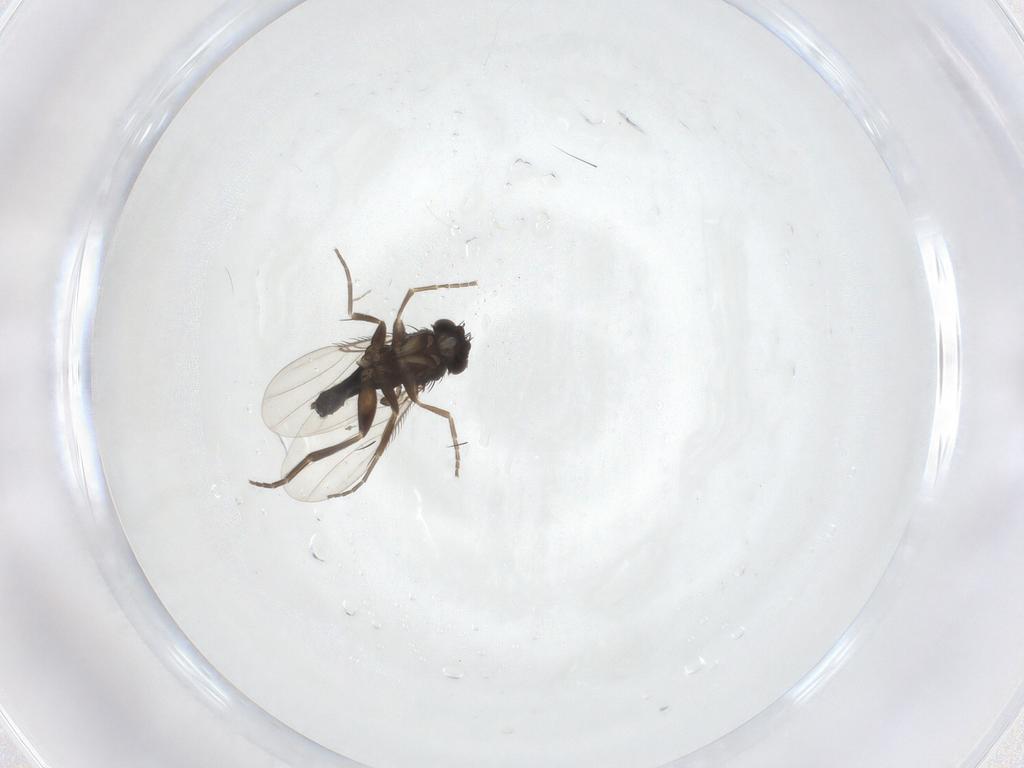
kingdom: Animalia
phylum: Arthropoda
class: Insecta
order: Diptera
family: Phoridae
